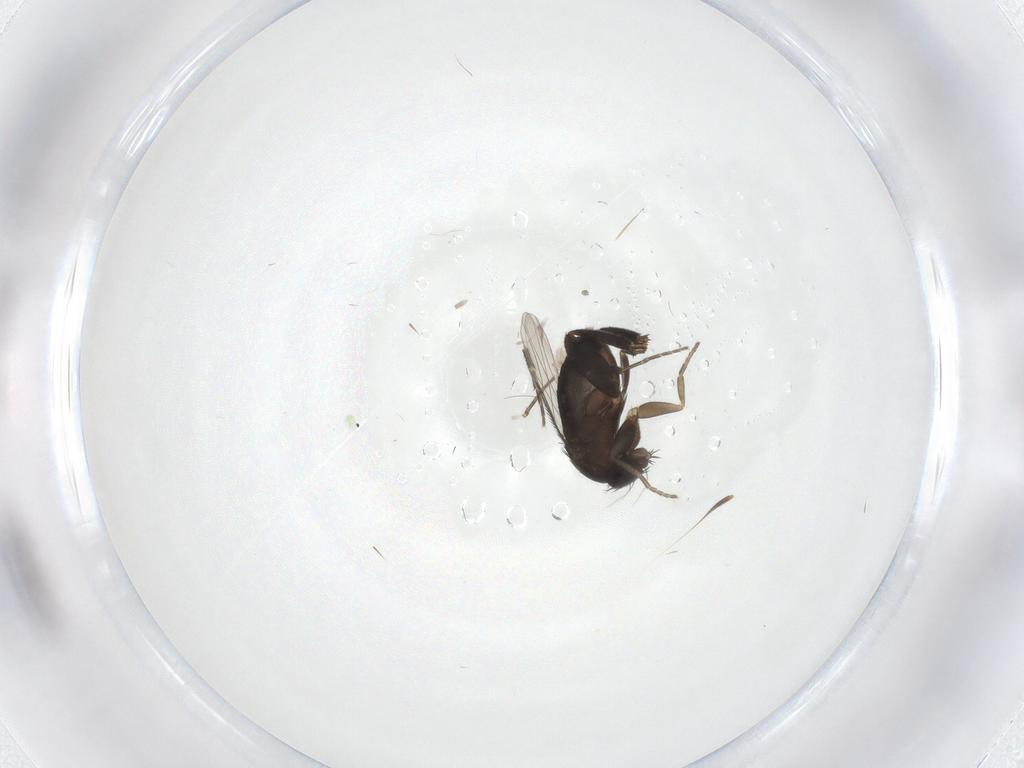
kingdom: Animalia
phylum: Arthropoda
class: Insecta
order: Diptera
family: Phoridae
